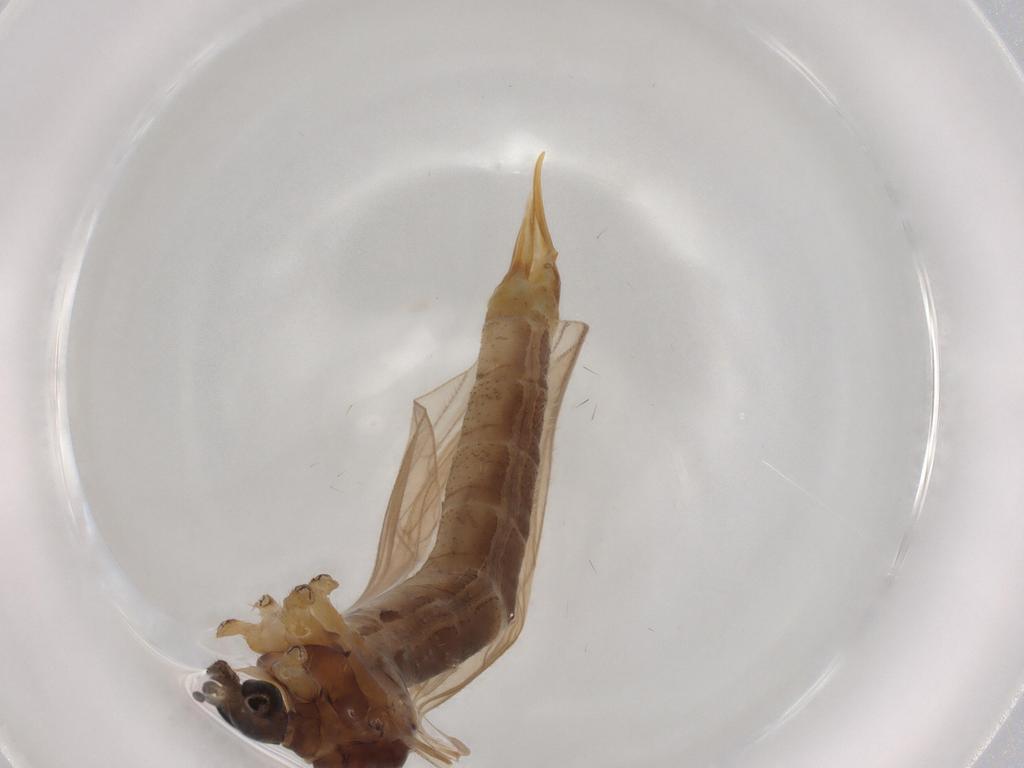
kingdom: Animalia
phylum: Arthropoda
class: Insecta
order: Diptera
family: Limoniidae
